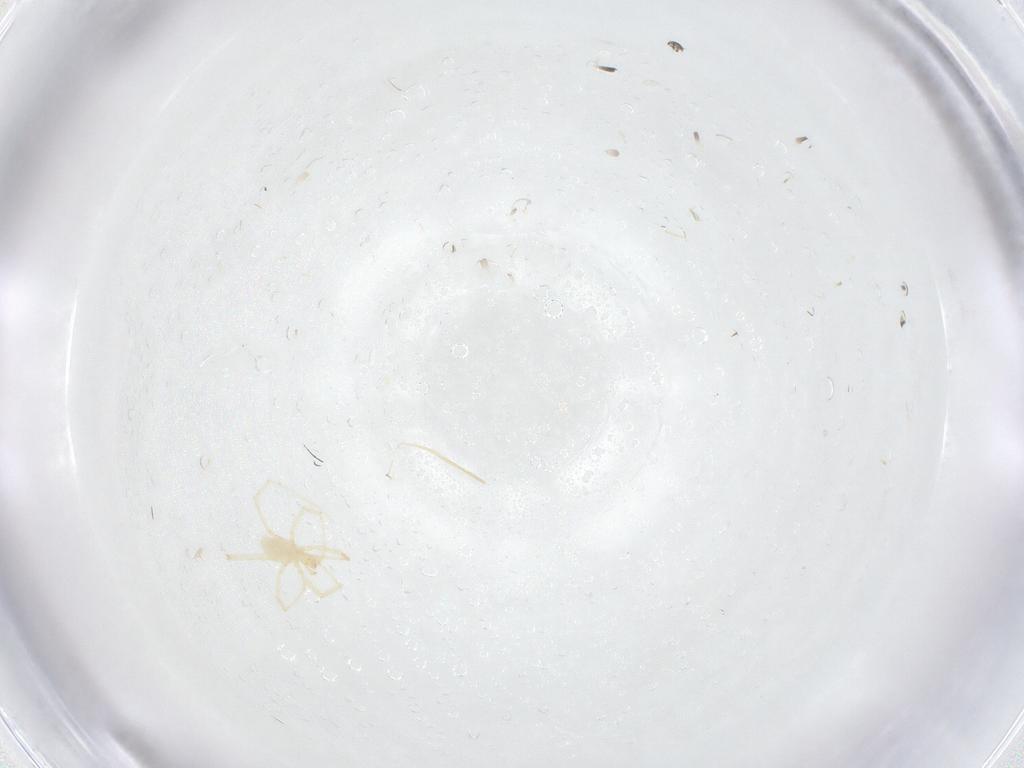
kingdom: Animalia
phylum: Arthropoda
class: Arachnida
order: Trombidiformes
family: Erythraeidae
